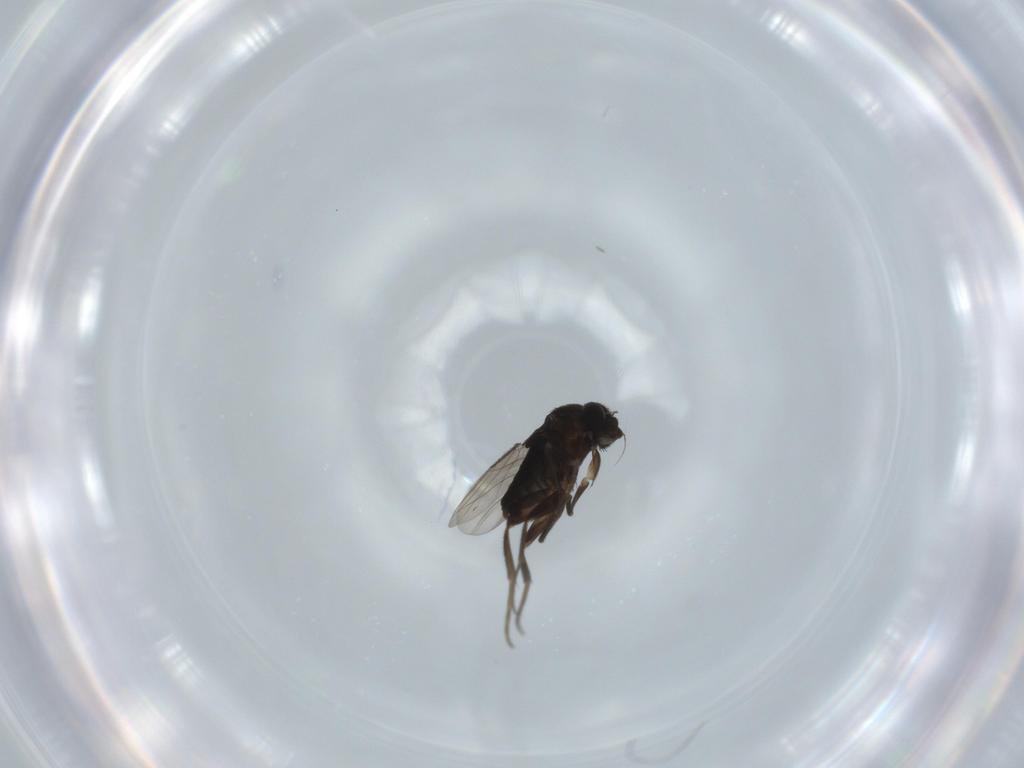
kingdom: Animalia
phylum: Arthropoda
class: Insecta
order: Diptera
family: Phoridae
